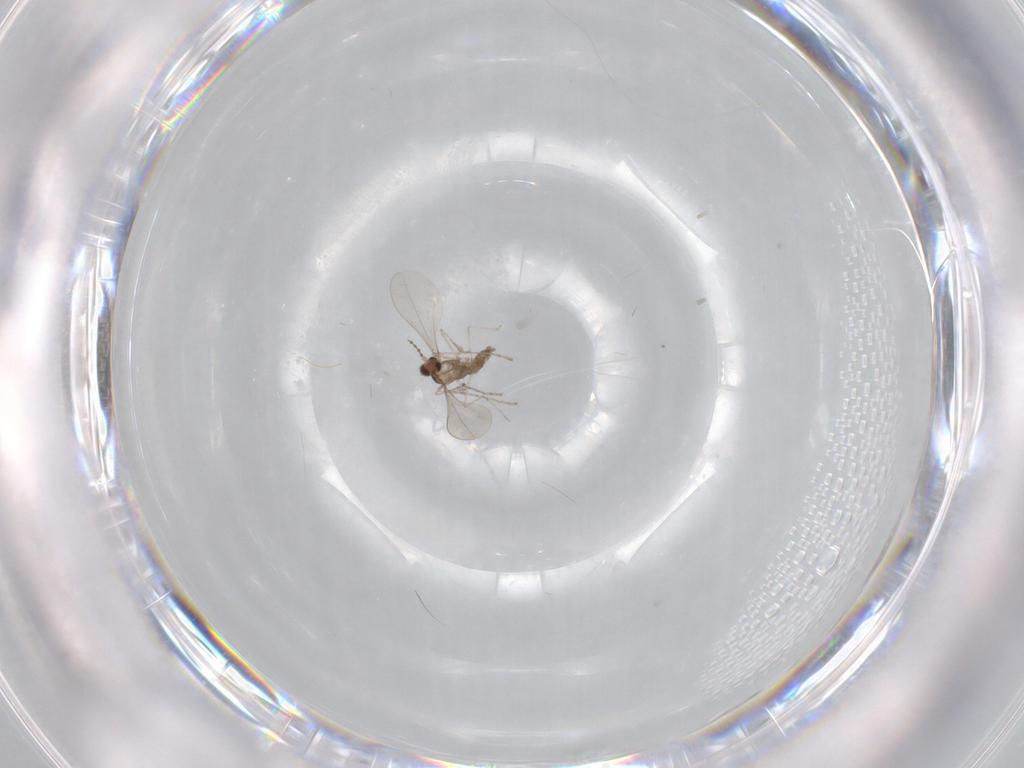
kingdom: Animalia
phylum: Arthropoda
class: Insecta
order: Diptera
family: Cecidomyiidae
